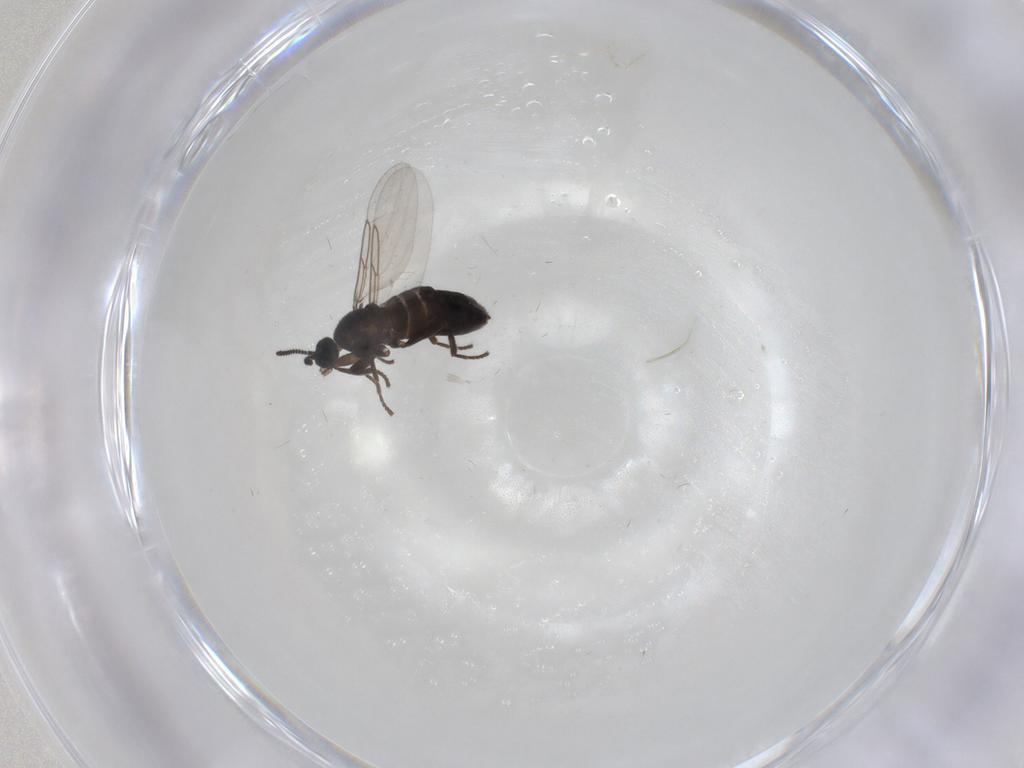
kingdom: Animalia
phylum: Arthropoda
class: Insecta
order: Diptera
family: Scatopsidae
